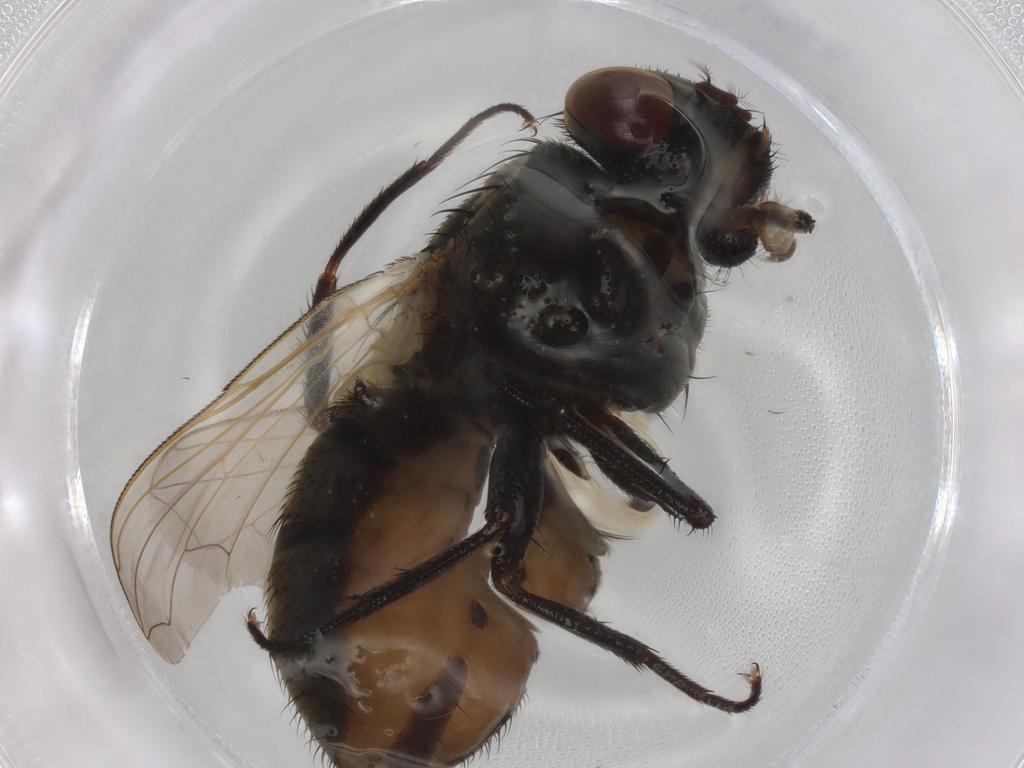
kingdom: Animalia
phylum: Arthropoda
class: Insecta
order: Diptera
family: Muscidae
